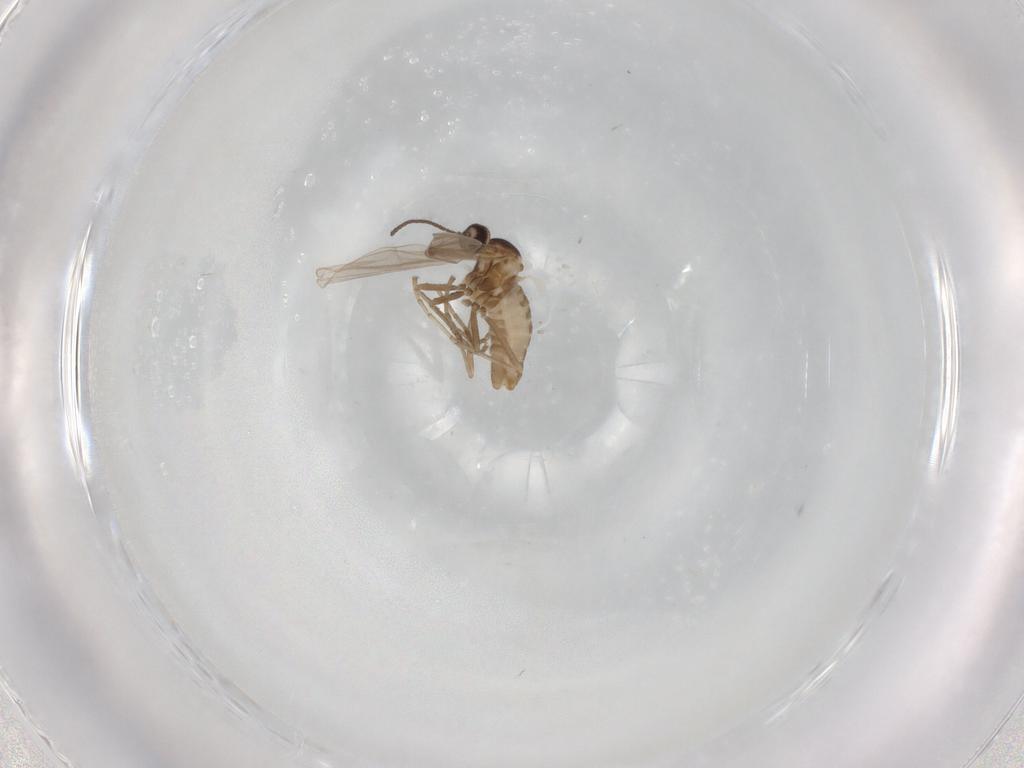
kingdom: Animalia
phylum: Arthropoda
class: Insecta
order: Diptera
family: Cecidomyiidae
